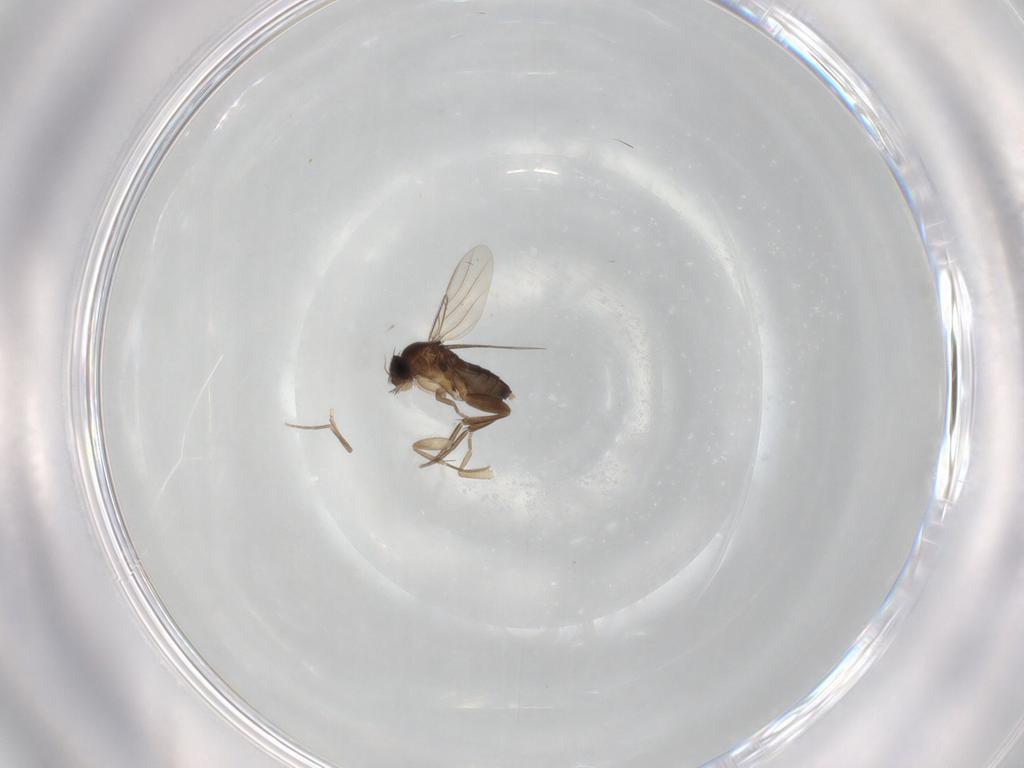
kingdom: Animalia
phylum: Arthropoda
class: Insecta
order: Diptera
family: Phoridae
